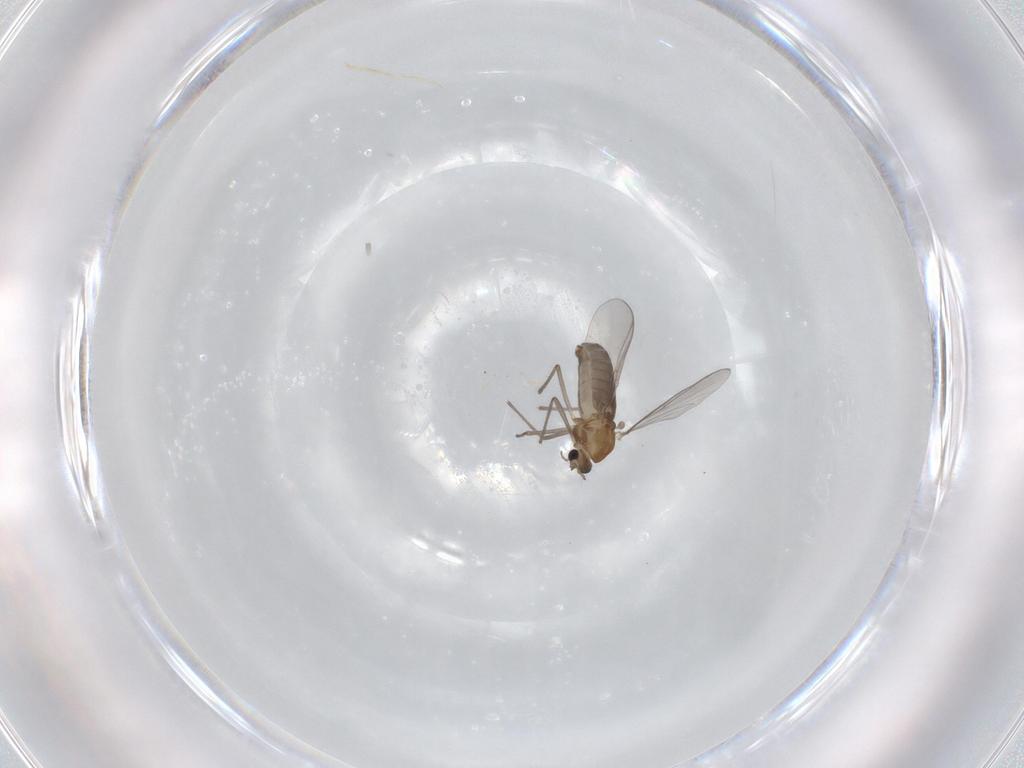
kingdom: Animalia
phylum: Arthropoda
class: Insecta
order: Diptera
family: Chironomidae
